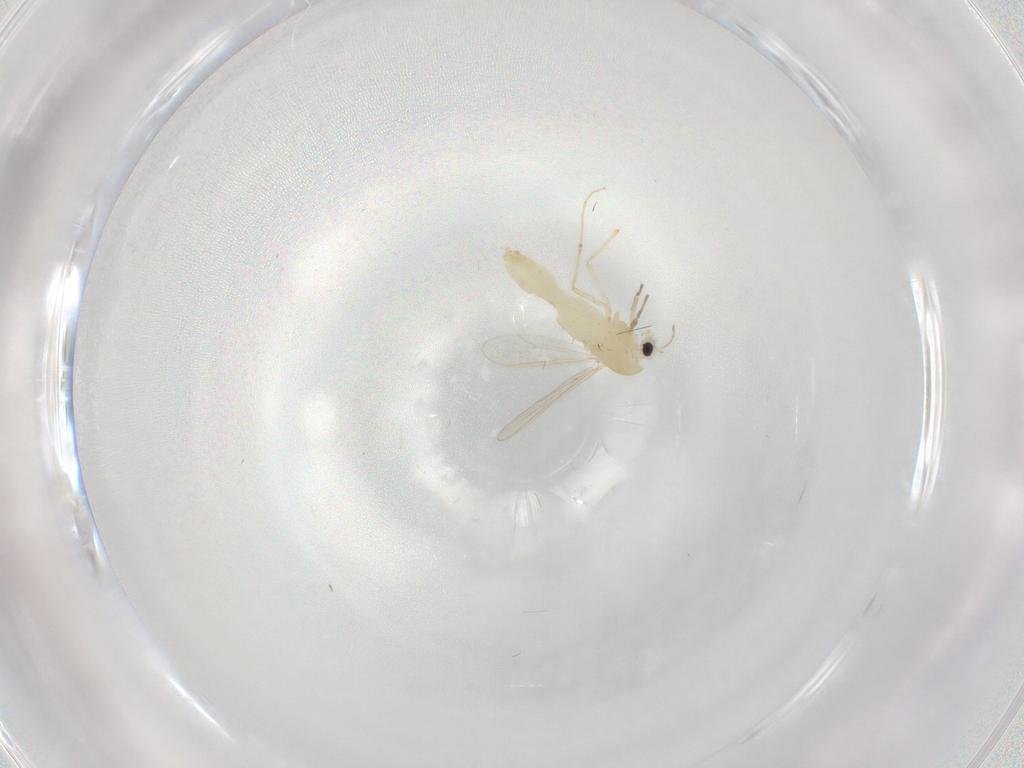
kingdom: Animalia
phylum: Arthropoda
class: Insecta
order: Diptera
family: Chironomidae
